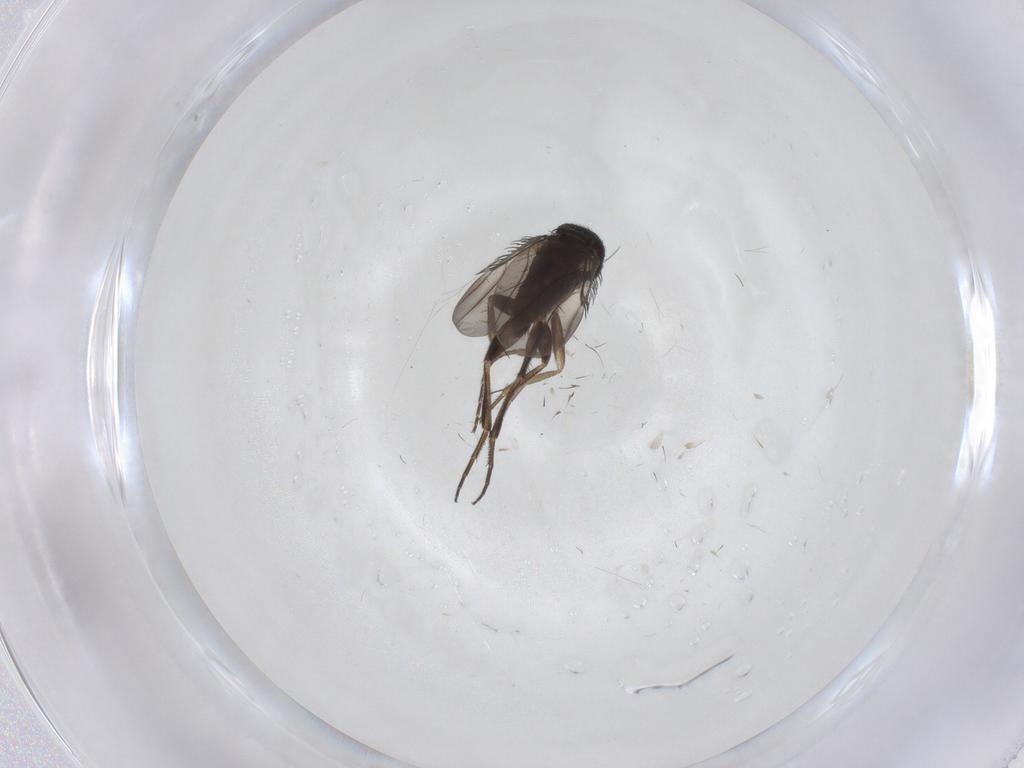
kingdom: Animalia
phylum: Arthropoda
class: Insecta
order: Diptera
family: Phoridae
